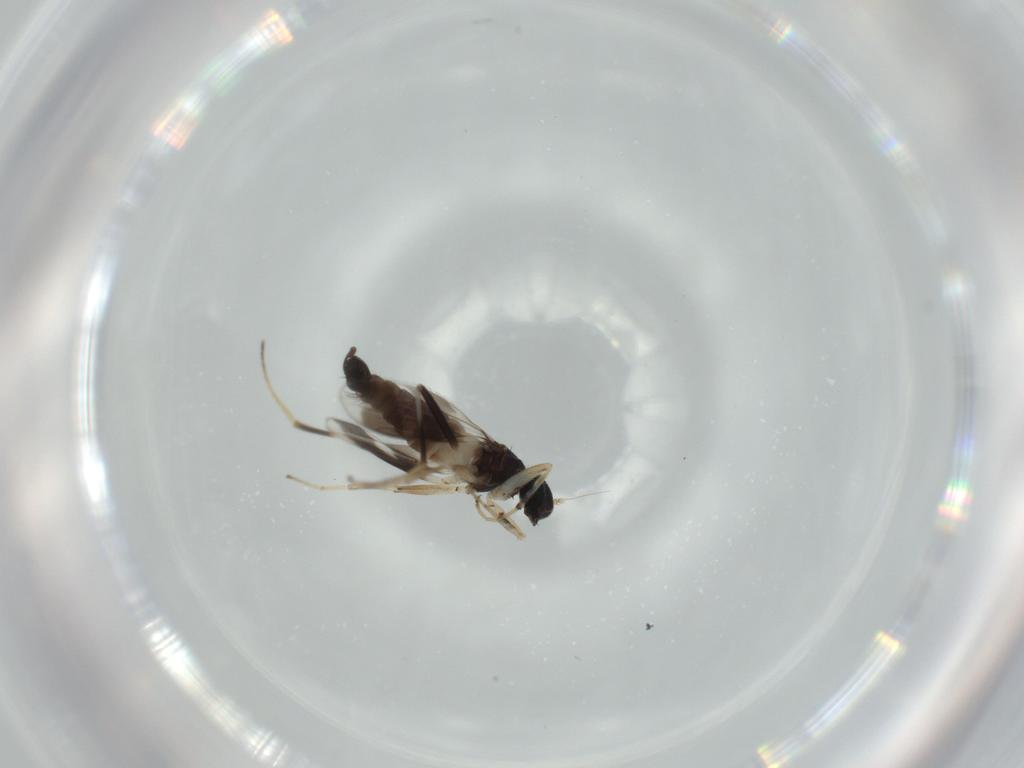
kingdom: Animalia
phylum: Arthropoda
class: Insecta
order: Diptera
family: Hybotidae
